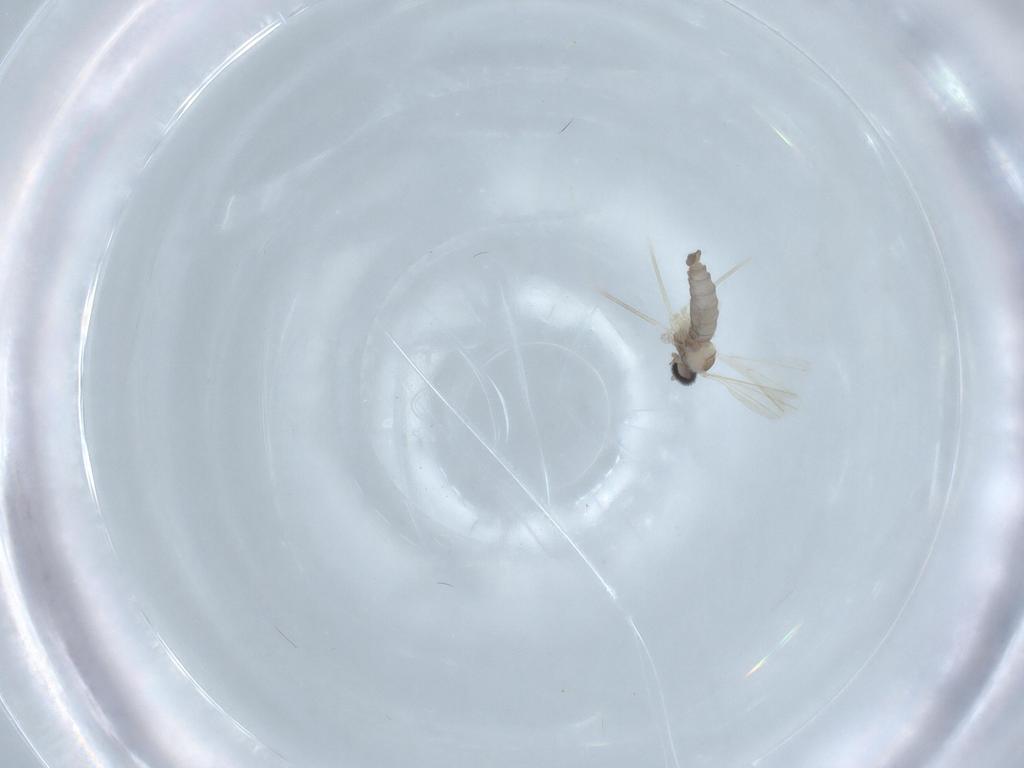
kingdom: Animalia
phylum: Arthropoda
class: Insecta
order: Diptera
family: Cecidomyiidae
